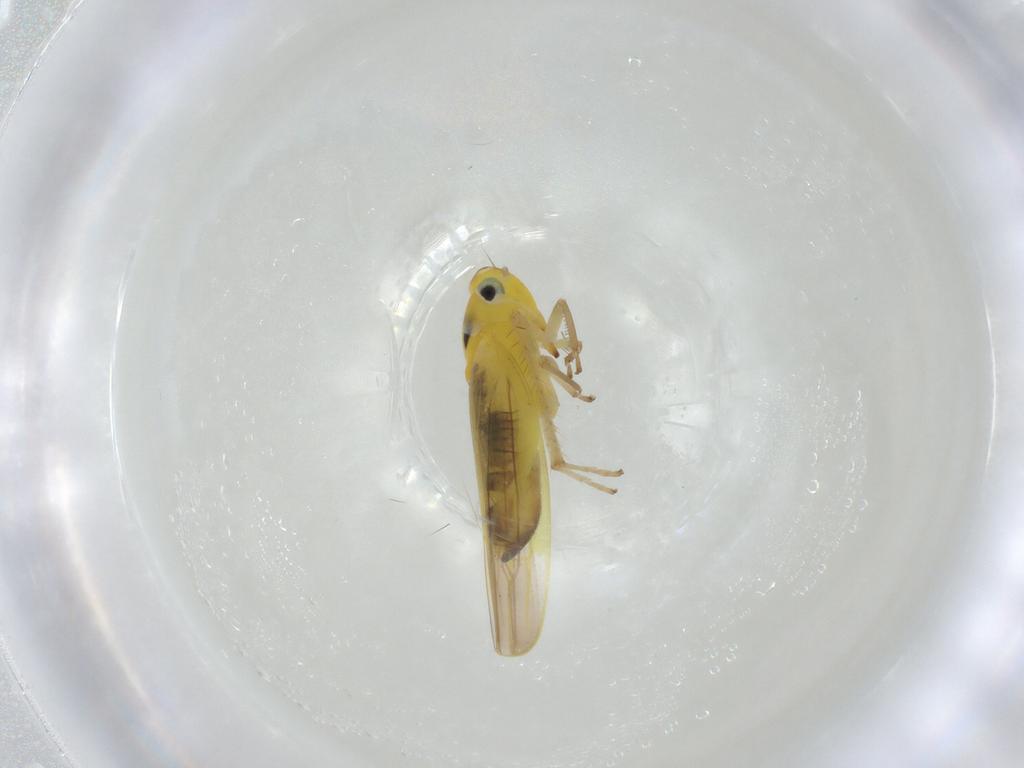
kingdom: Animalia
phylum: Arthropoda
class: Insecta
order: Hemiptera
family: Cicadellidae
